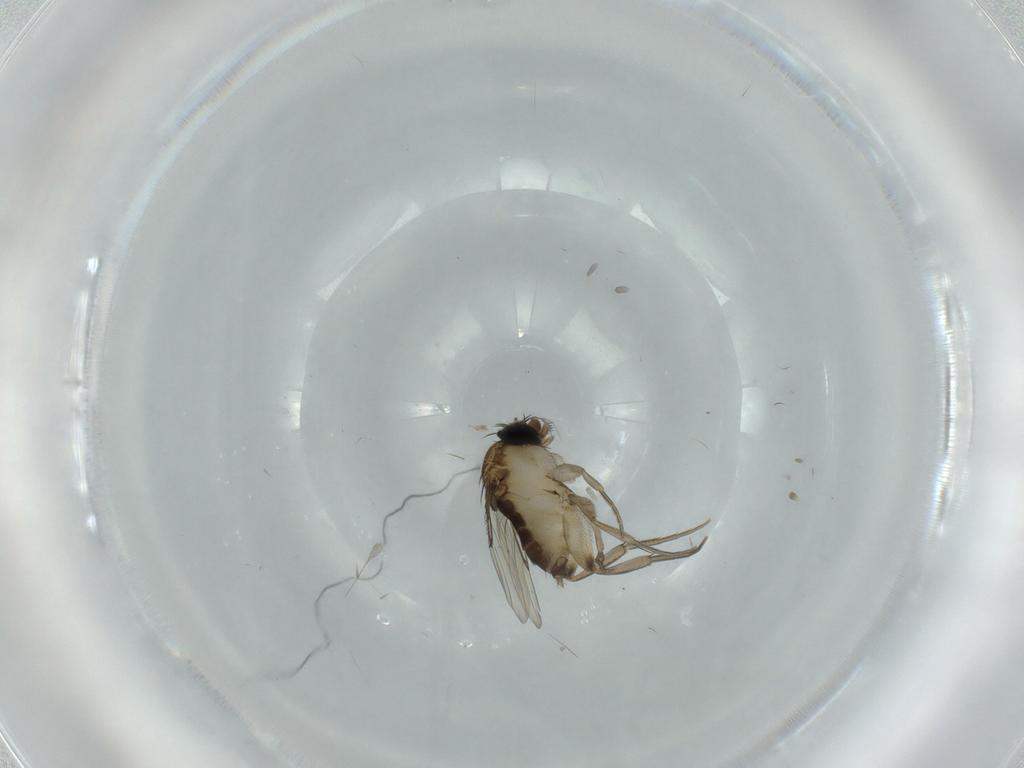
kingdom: Animalia
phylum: Arthropoda
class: Insecta
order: Diptera
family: Phoridae
